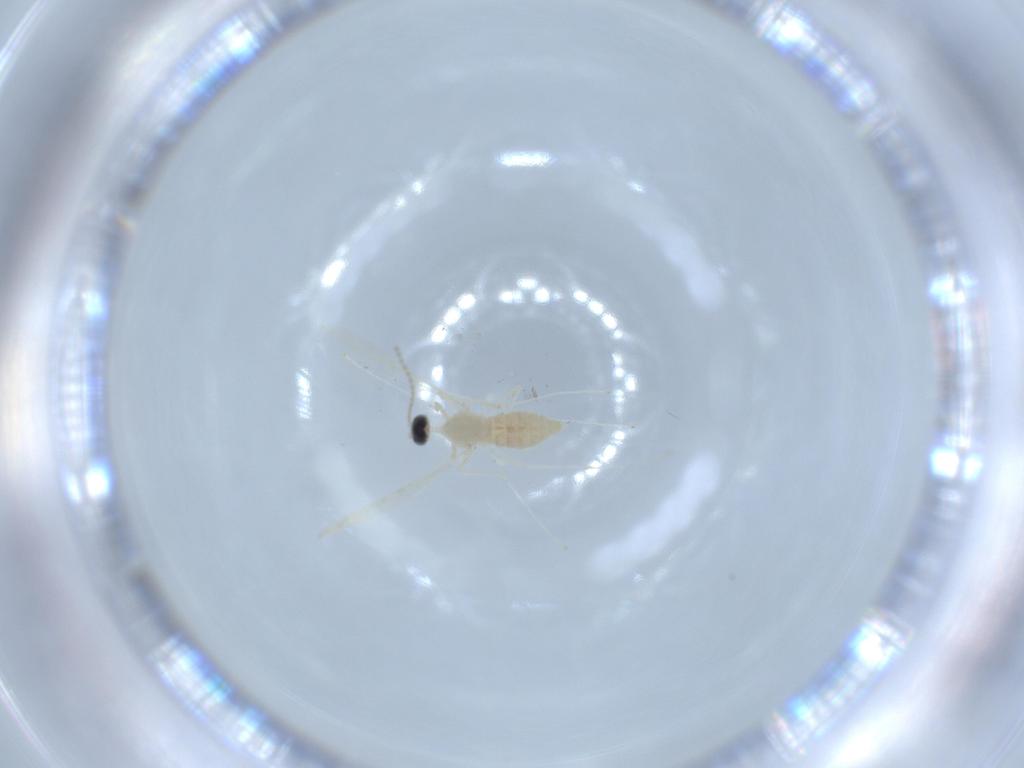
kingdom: Animalia
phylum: Arthropoda
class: Insecta
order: Diptera
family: Cecidomyiidae
